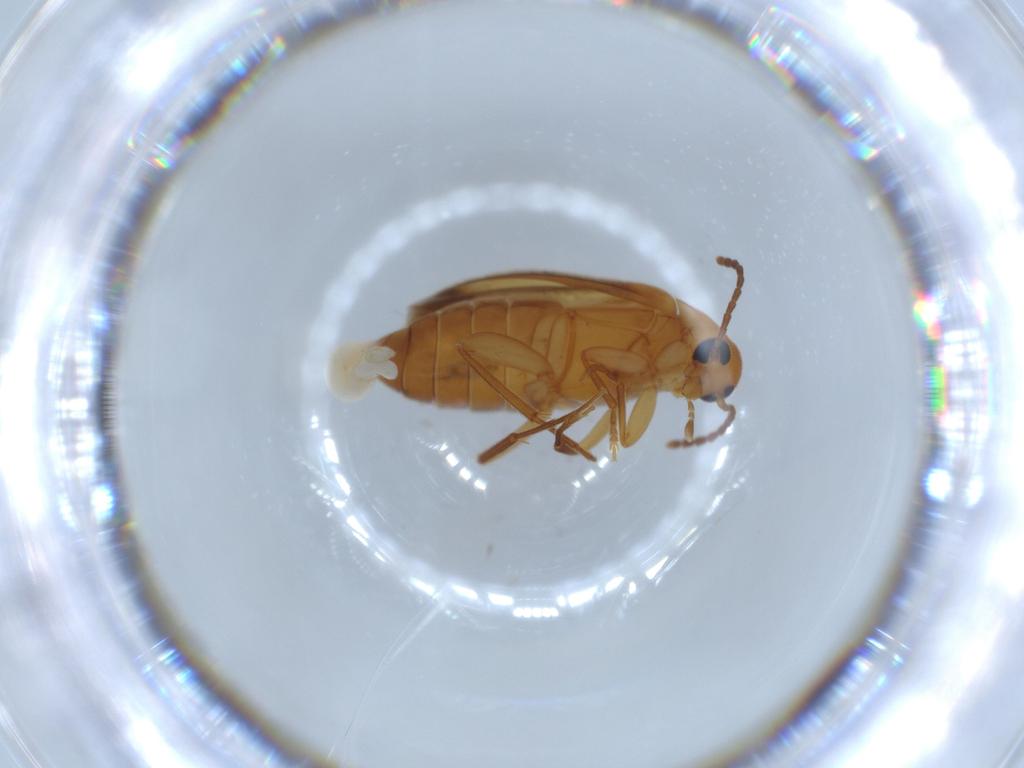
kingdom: Animalia
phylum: Arthropoda
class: Insecta
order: Coleoptera
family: Scraptiidae
